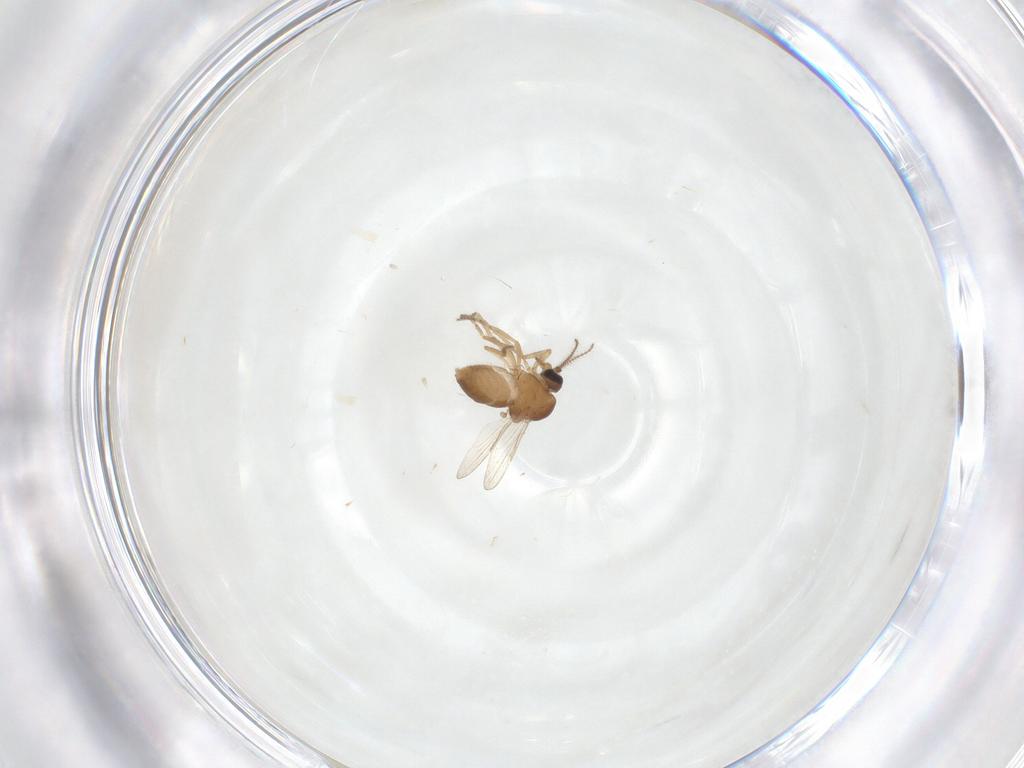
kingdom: Animalia
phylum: Arthropoda
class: Insecta
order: Diptera
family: Ceratopogonidae
